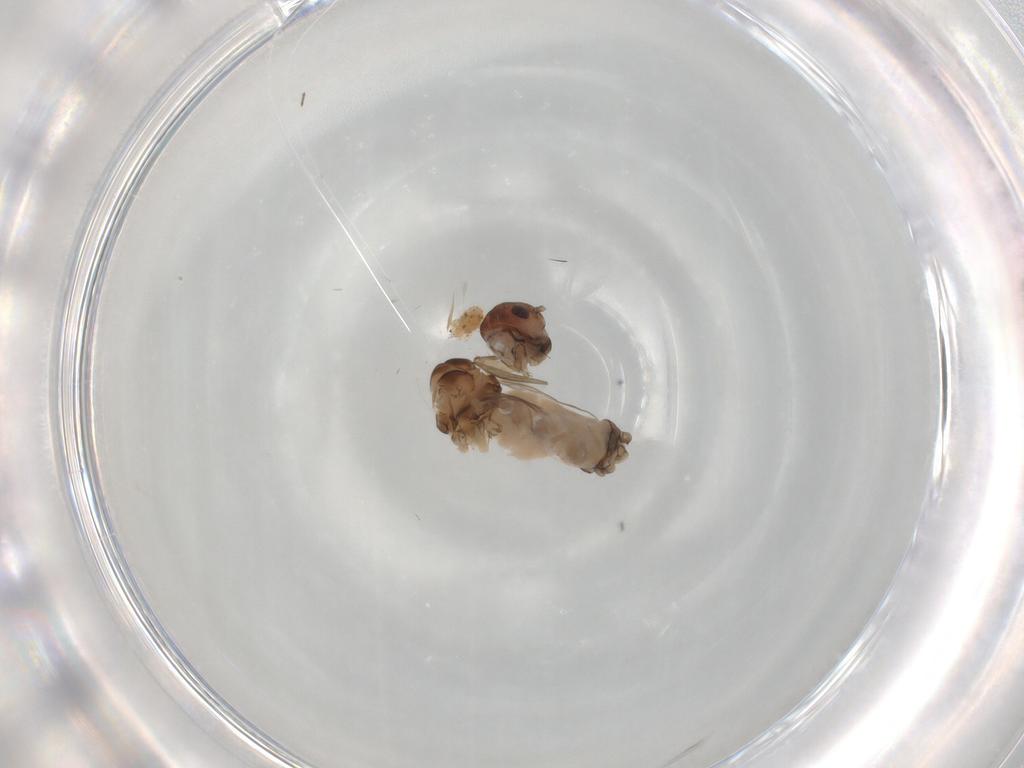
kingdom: Animalia
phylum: Arthropoda
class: Insecta
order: Psocodea
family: Peripsocidae
